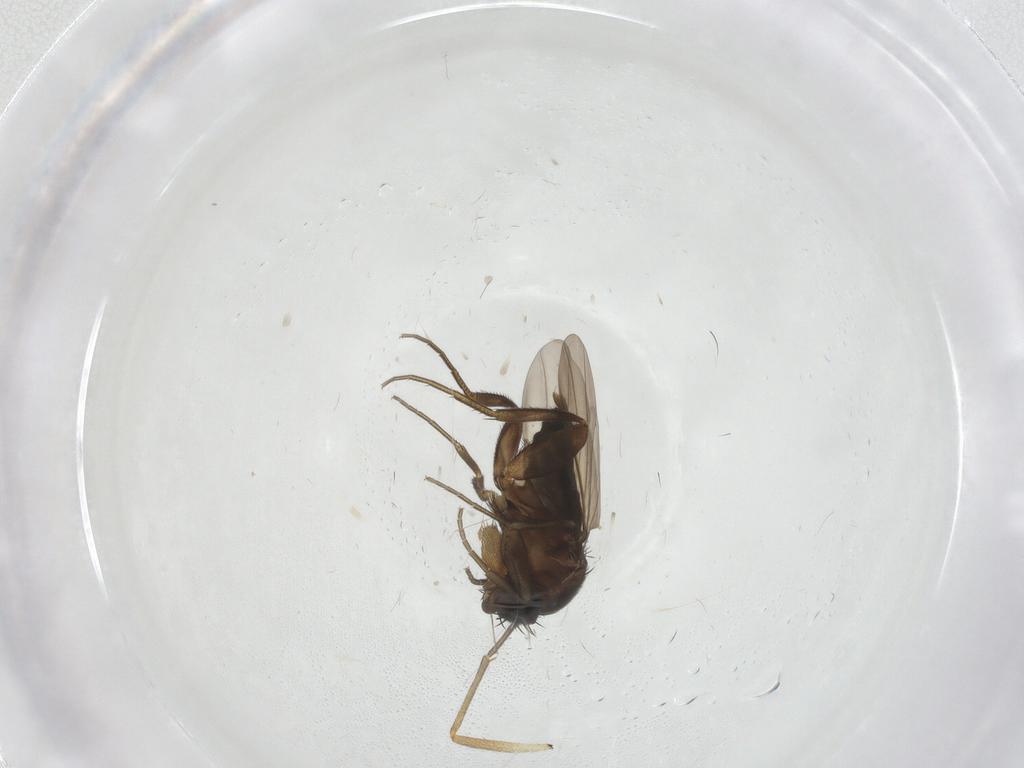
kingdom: Animalia
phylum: Arthropoda
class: Insecta
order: Diptera
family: Phoridae
